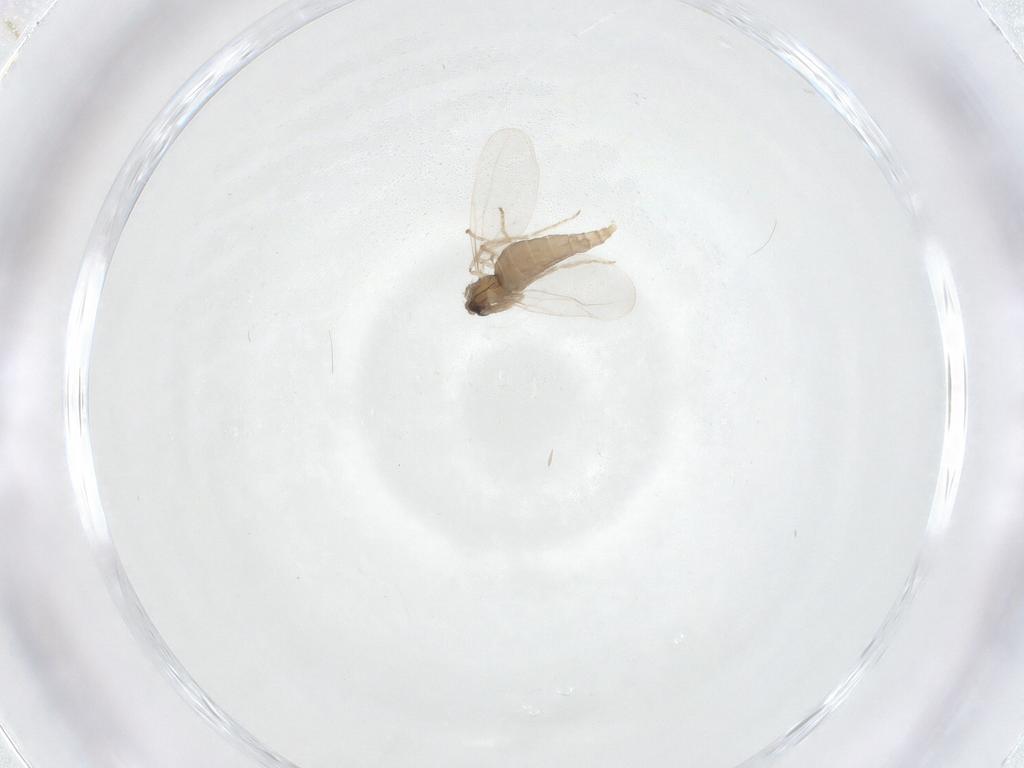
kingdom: Animalia
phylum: Arthropoda
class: Insecta
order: Diptera
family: Cecidomyiidae
